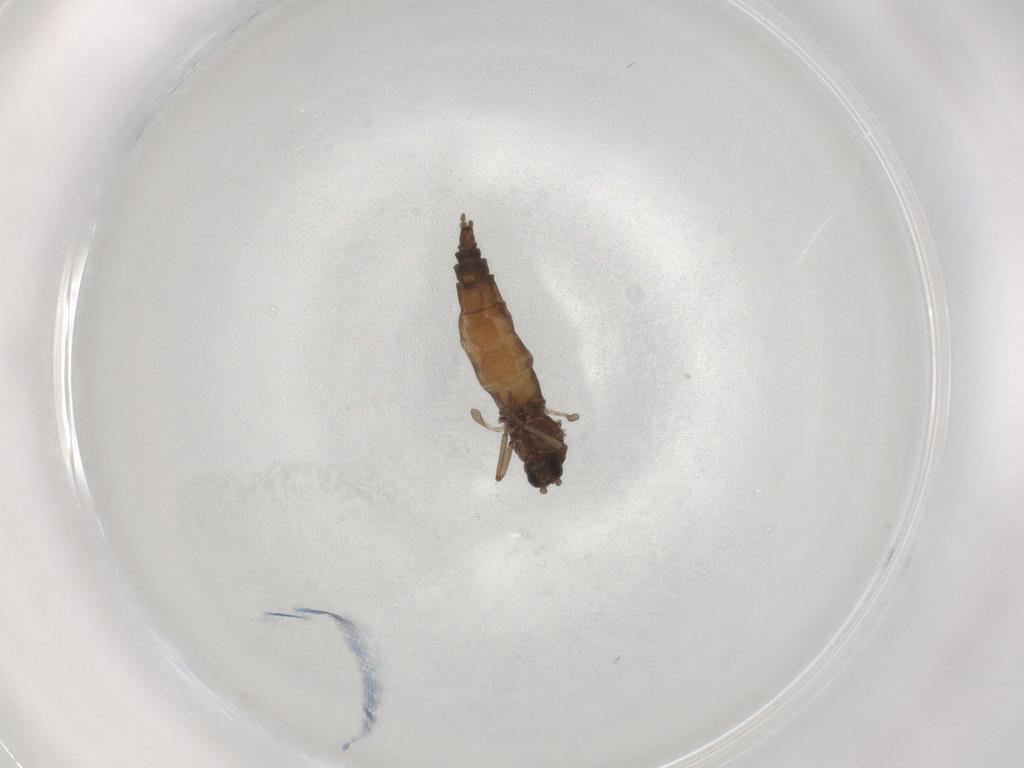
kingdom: Animalia
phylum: Arthropoda
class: Insecta
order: Diptera
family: Sciaridae
